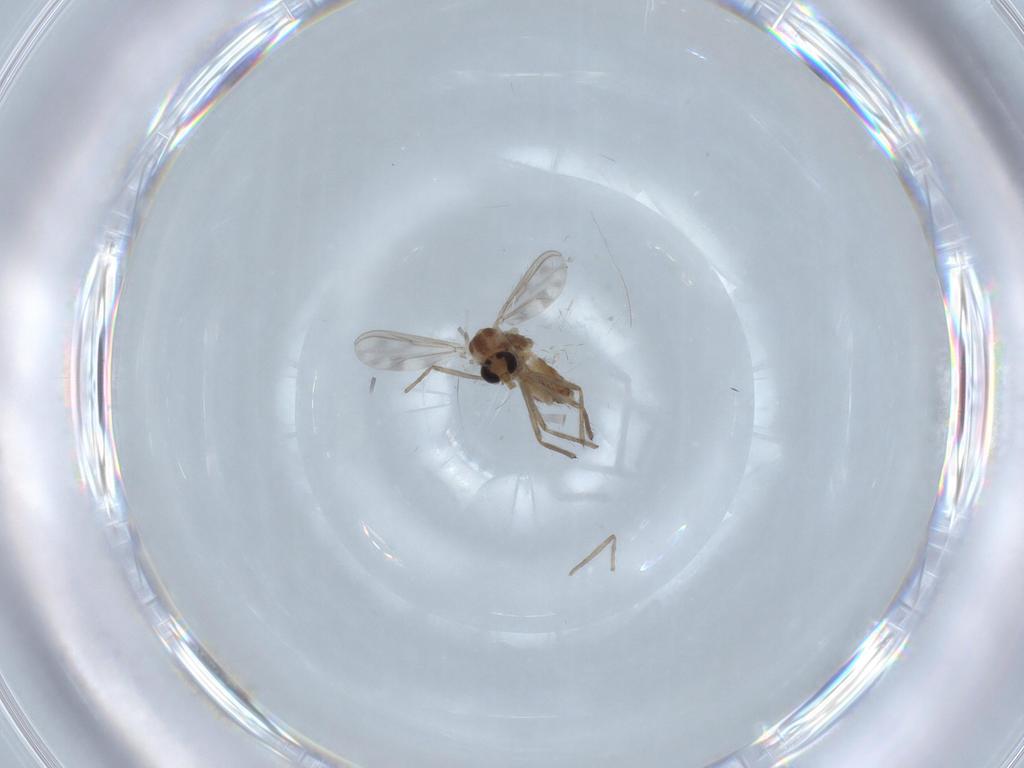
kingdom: Animalia
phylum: Arthropoda
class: Insecta
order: Diptera
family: Chironomidae
